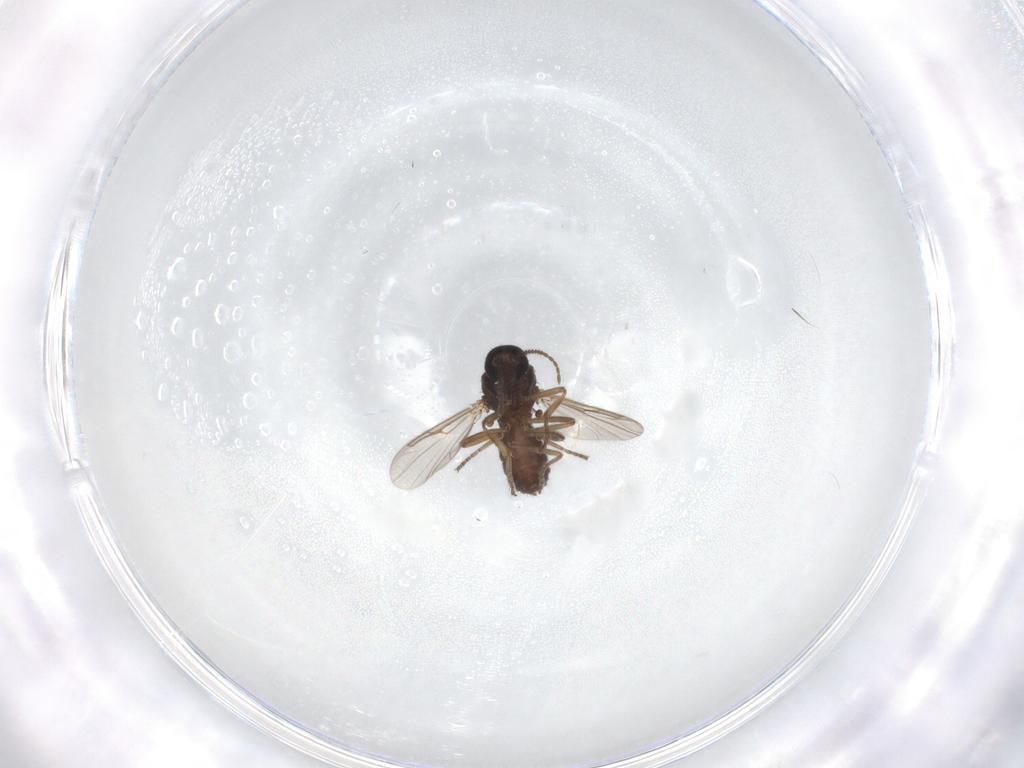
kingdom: Animalia
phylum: Arthropoda
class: Insecta
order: Diptera
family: Ceratopogonidae
